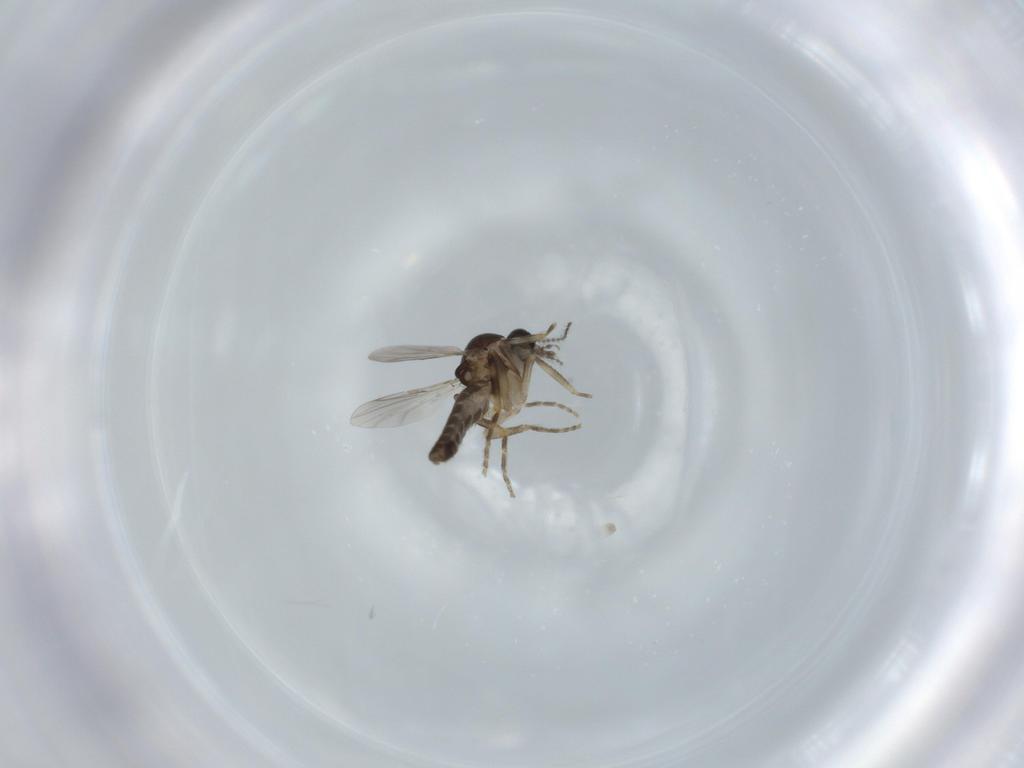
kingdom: Animalia
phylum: Arthropoda
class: Insecta
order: Diptera
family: Ceratopogonidae
